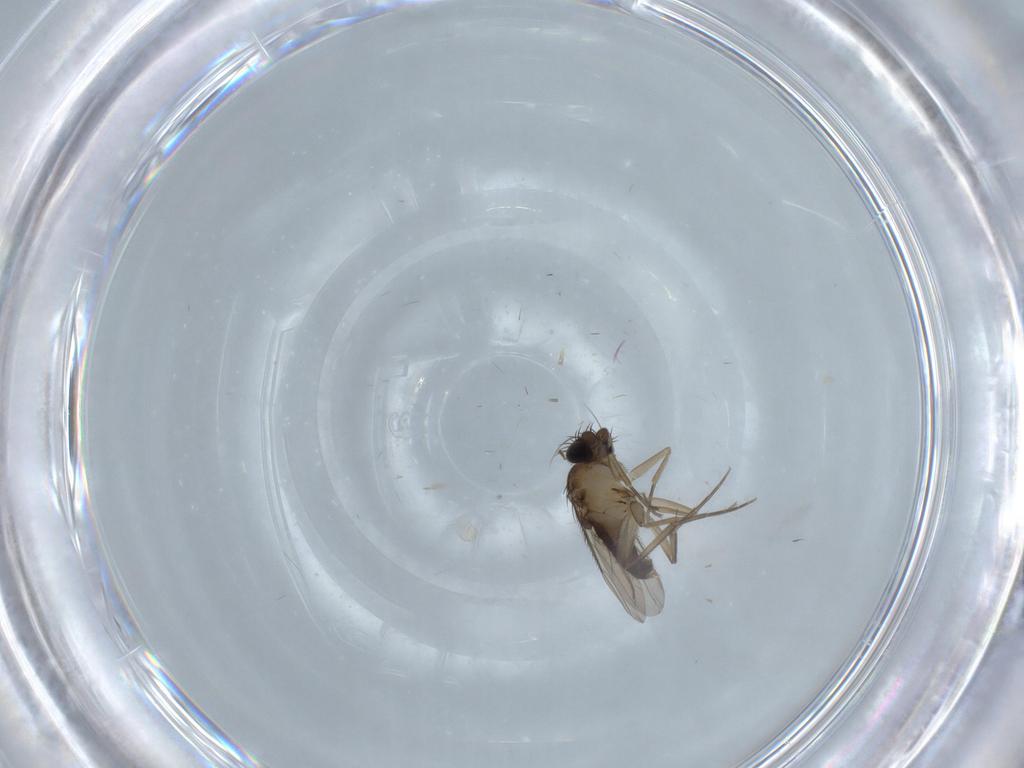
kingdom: Animalia
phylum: Arthropoda
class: Insecta
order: Diptera
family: Phoridae
